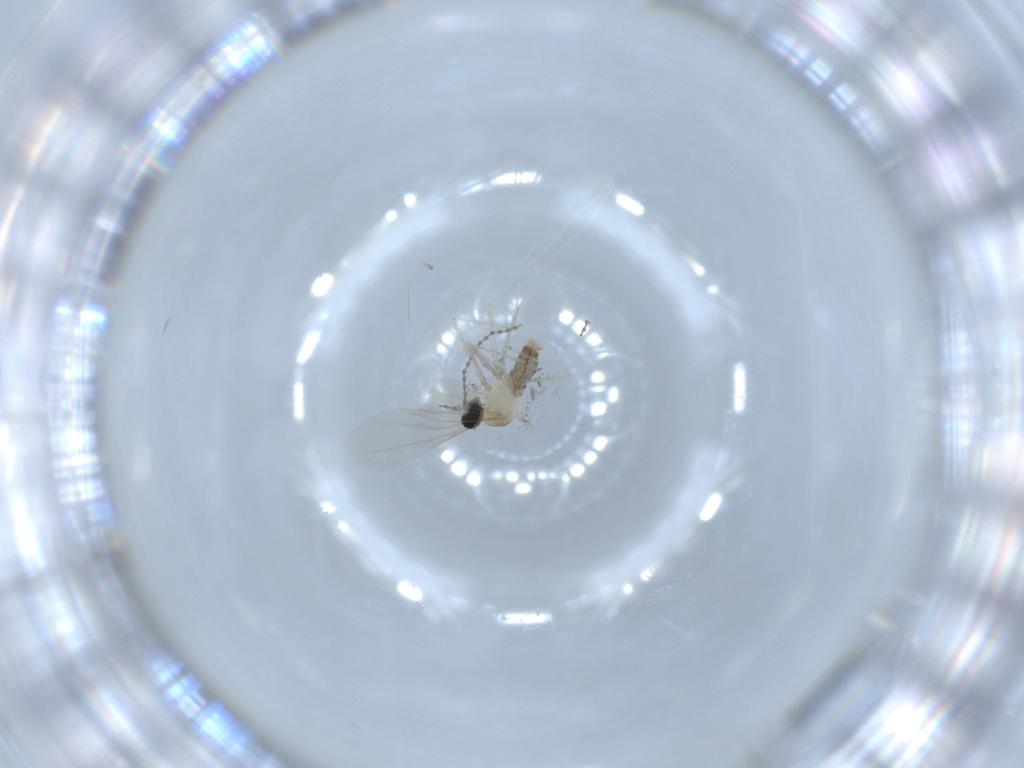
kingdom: Animalia
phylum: Arthropoda
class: Insecta
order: Diptera
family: Cecidomyiidae
